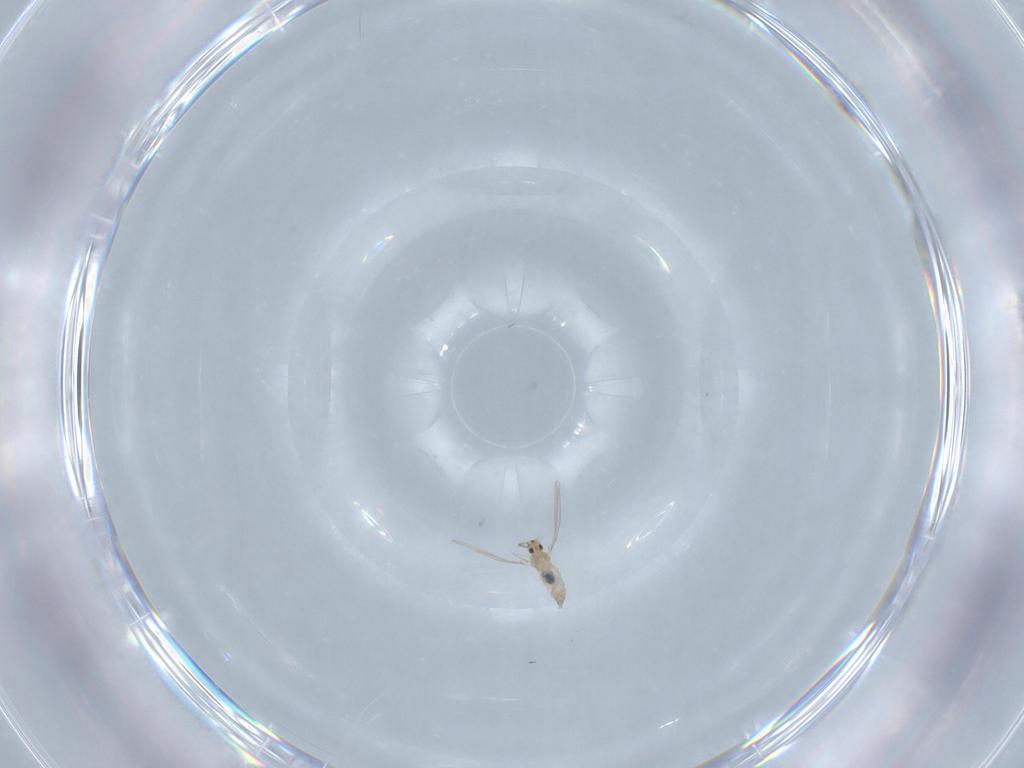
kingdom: Animalia
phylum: Arthropoda
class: Insecta
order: Diptera
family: Cecidomyiidae
